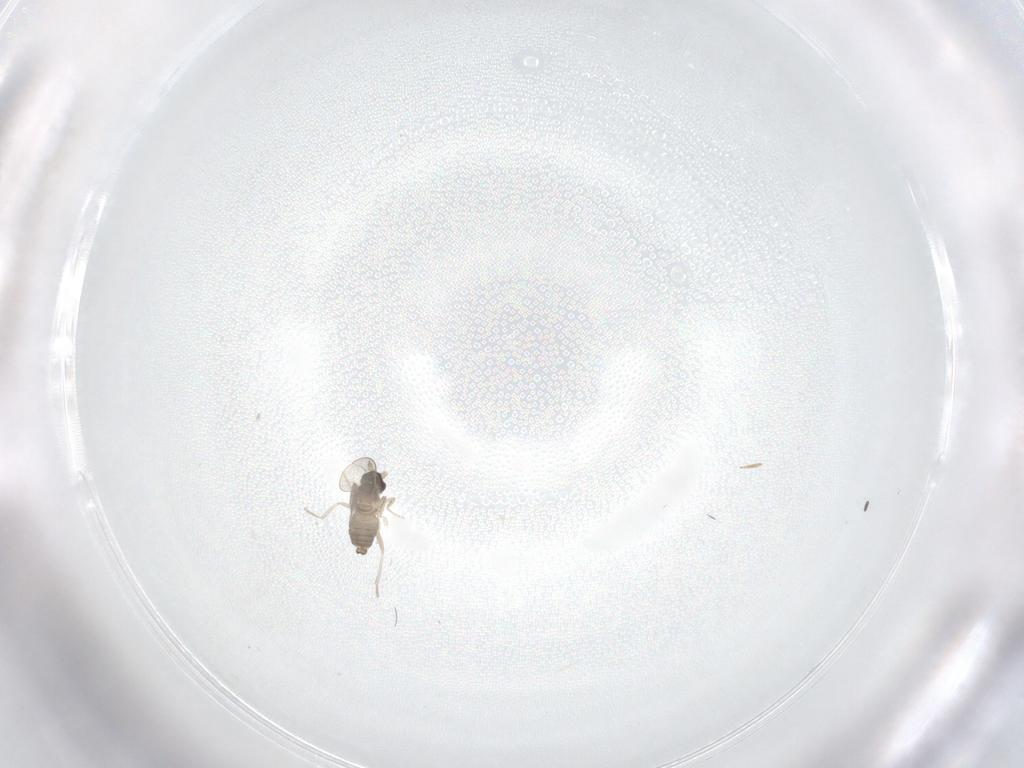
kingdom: Animalia
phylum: Arthropoda
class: Insecta
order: Diptera
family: Cecidomyiidae
